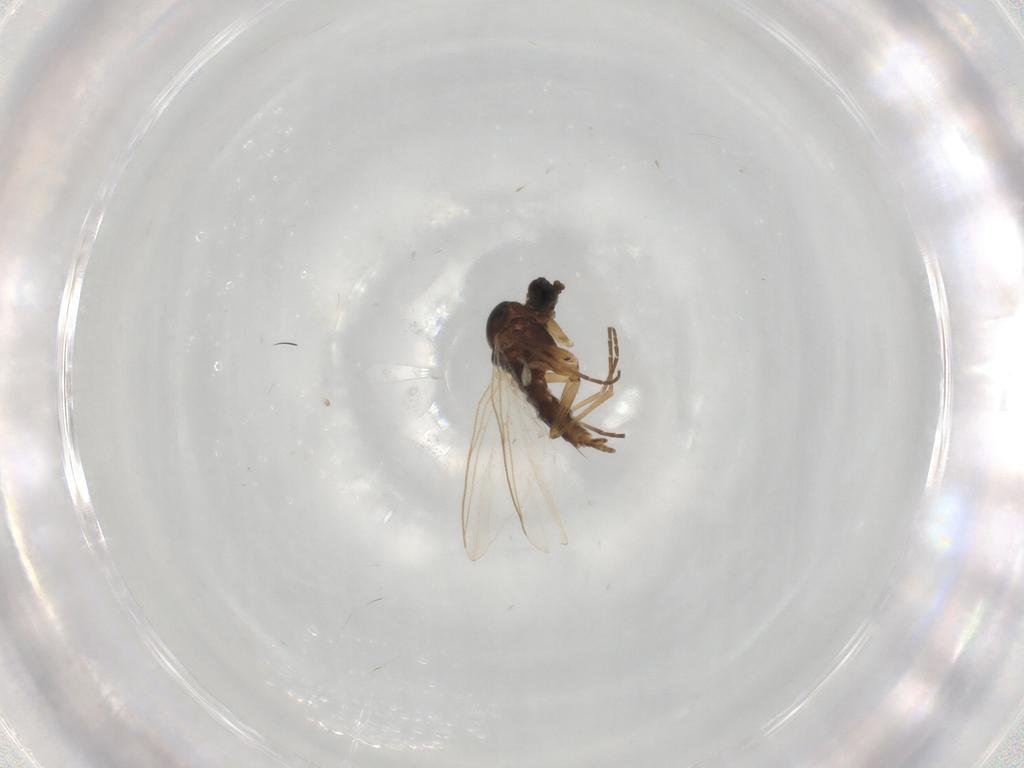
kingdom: Animalia
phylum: Arthropoda
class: Insecta
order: Diptera
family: Sciaridae
